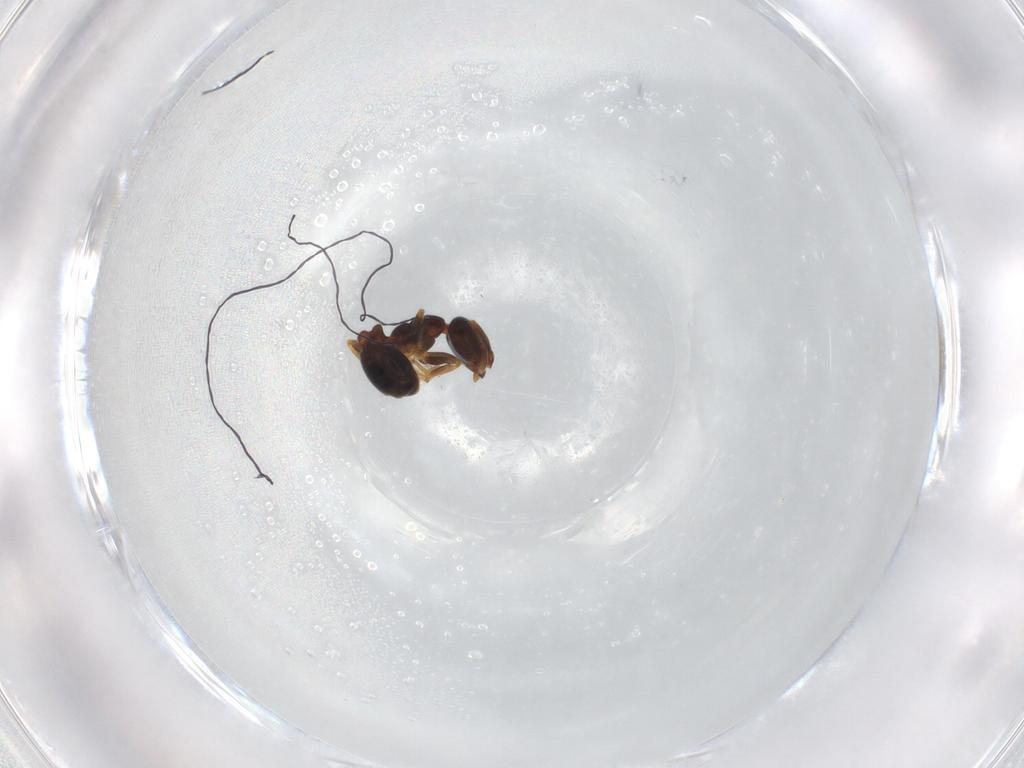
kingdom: Animalia
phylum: Arthropoda
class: Insecta
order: Hymenoptera
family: Formicidae
